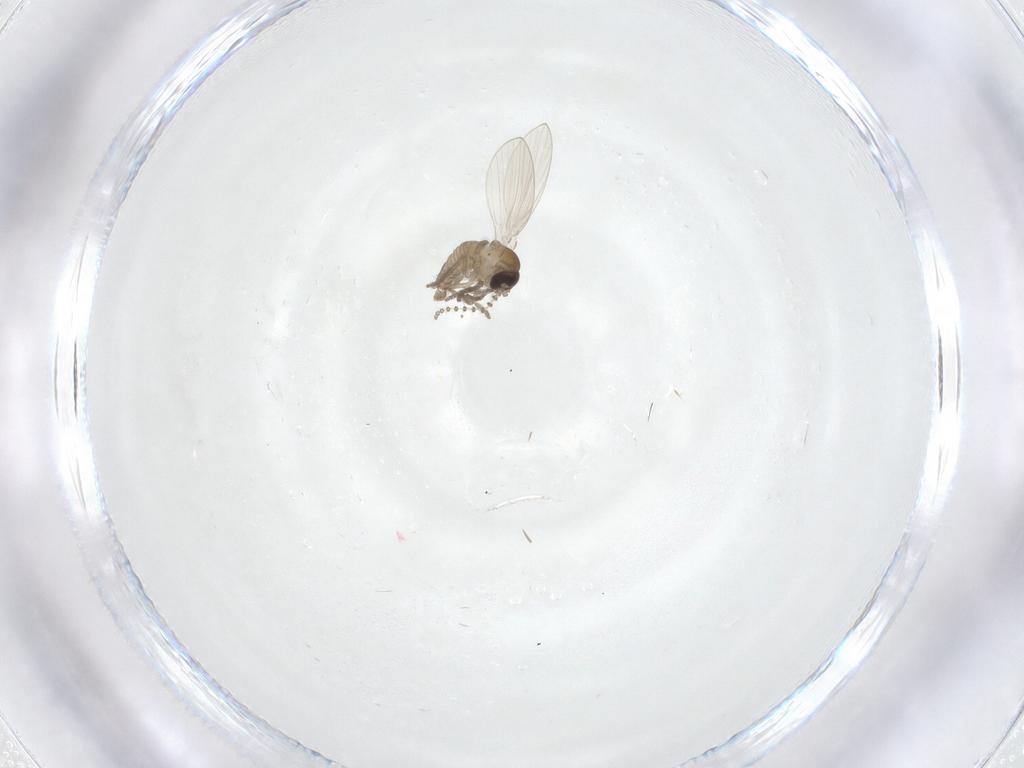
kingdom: Animalia
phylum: Arthropoda
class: Insecta
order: Diptera
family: Psychodidae
